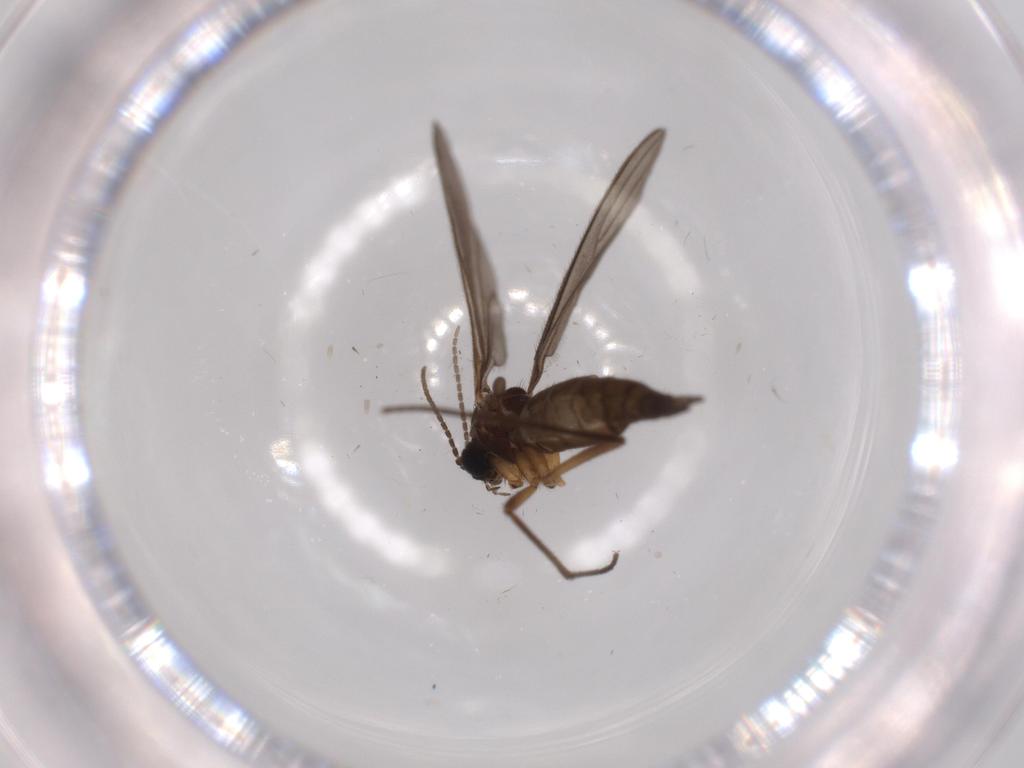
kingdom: Animalia
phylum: Arthropoda
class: Insecta
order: Diptera
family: Sciaridae
